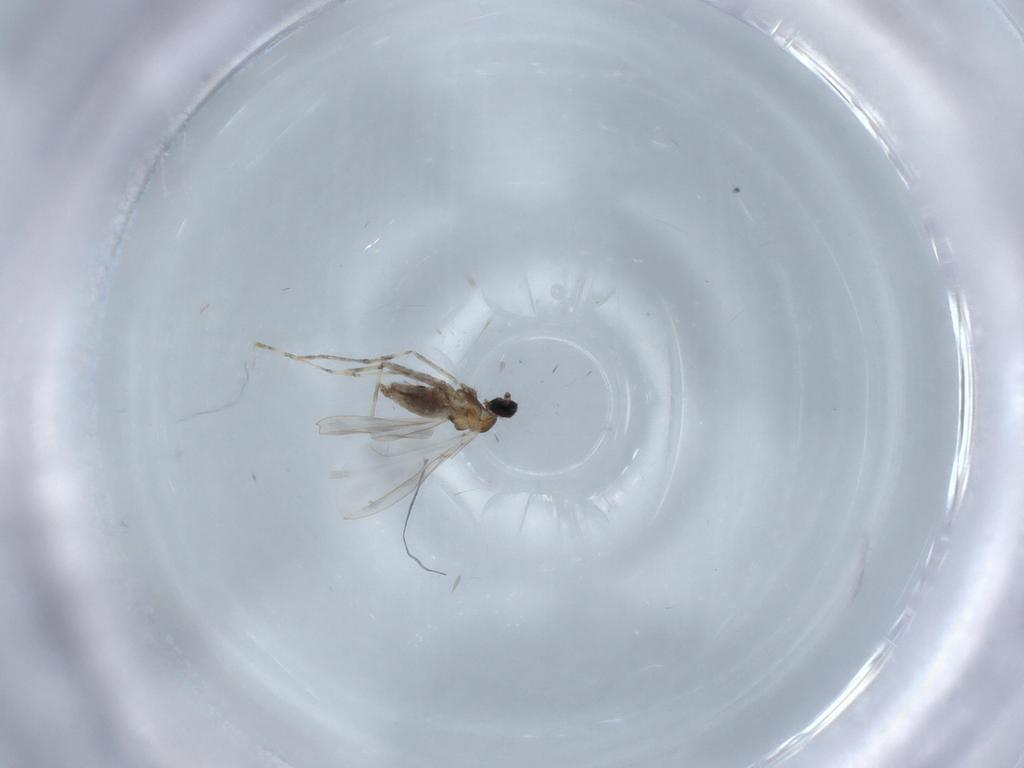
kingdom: Animalia
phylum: Arthropoda
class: Insecta
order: Diptera
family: Cecidomyiidae
